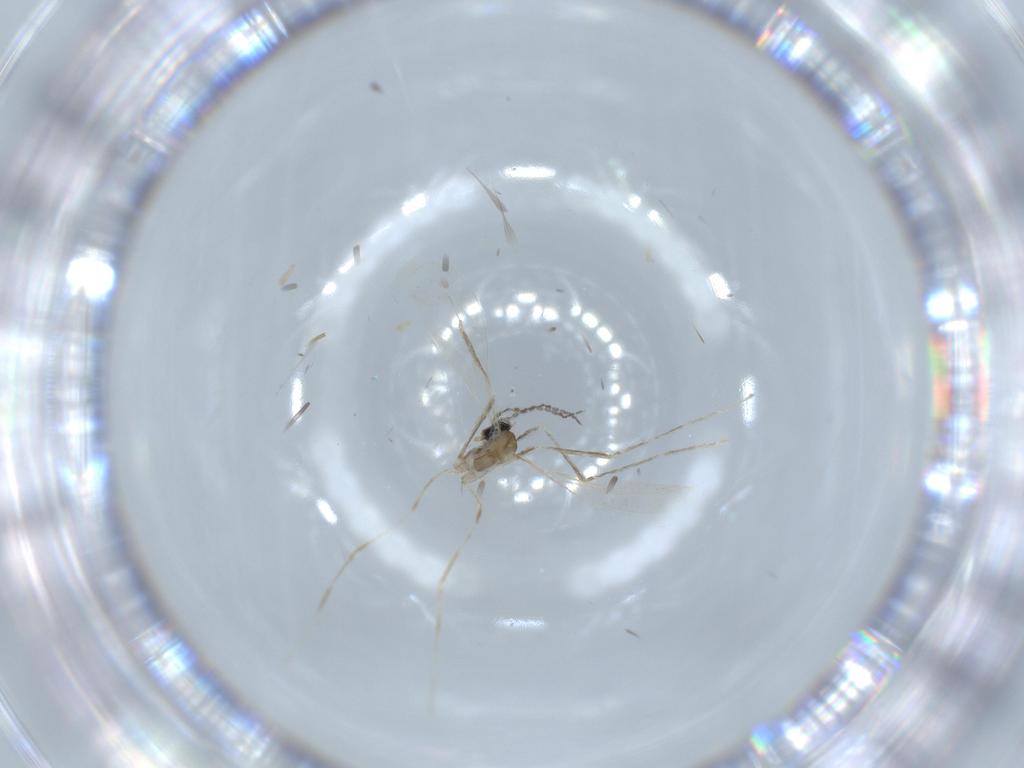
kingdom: Animalia
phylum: Arthropoda
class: Insecta
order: Diptera
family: Cecidomyiidae
